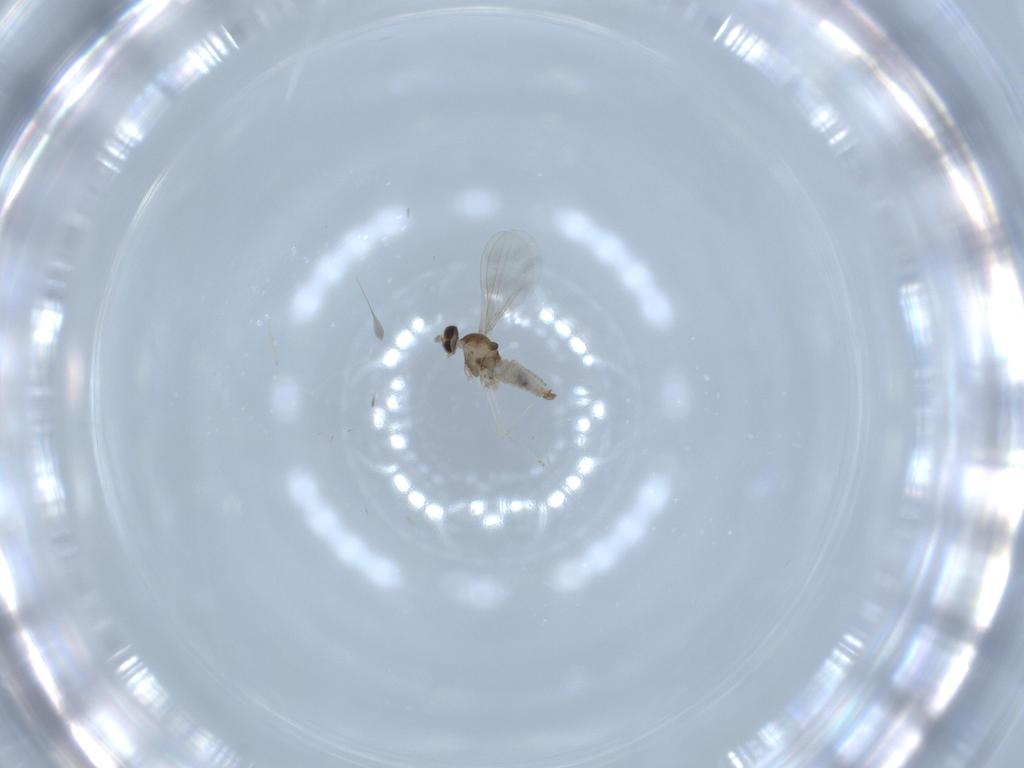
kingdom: Animalia
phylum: Arthropoda
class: Insecta
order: Diptera
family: Cecidomyiidae
